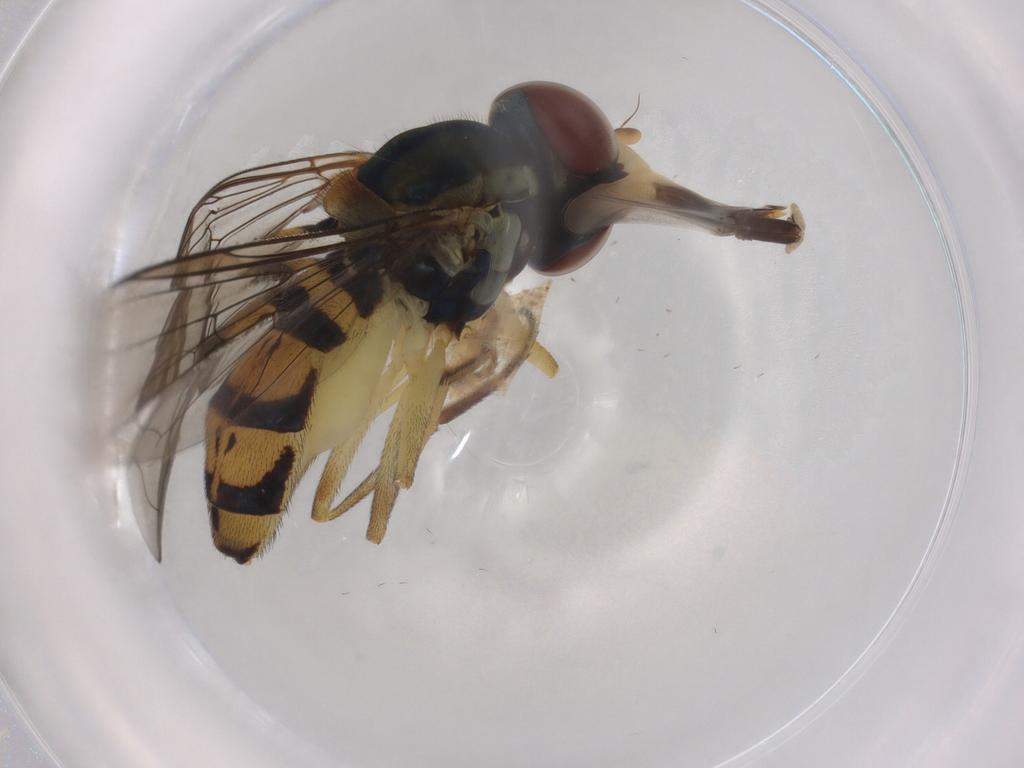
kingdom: Animalia
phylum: Arthropoda
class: Insecta
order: Diptera
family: Syrphidae
